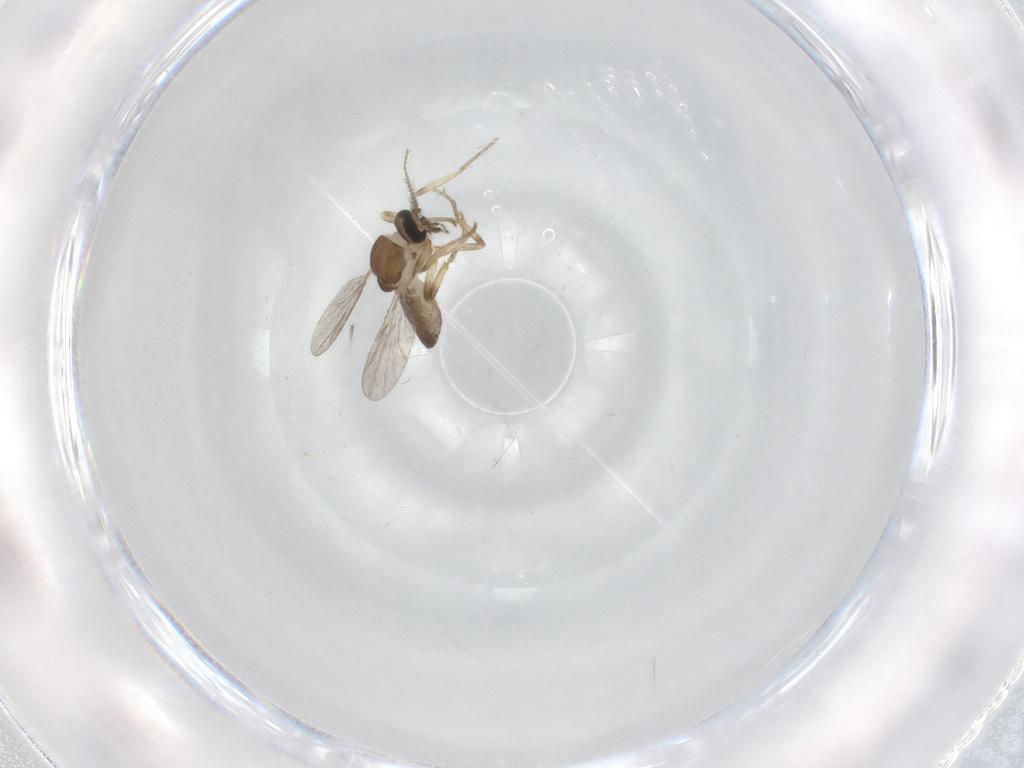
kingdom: Animalia
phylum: Arthropoda
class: Insecta
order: Diptera
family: Ceratopogonidae
